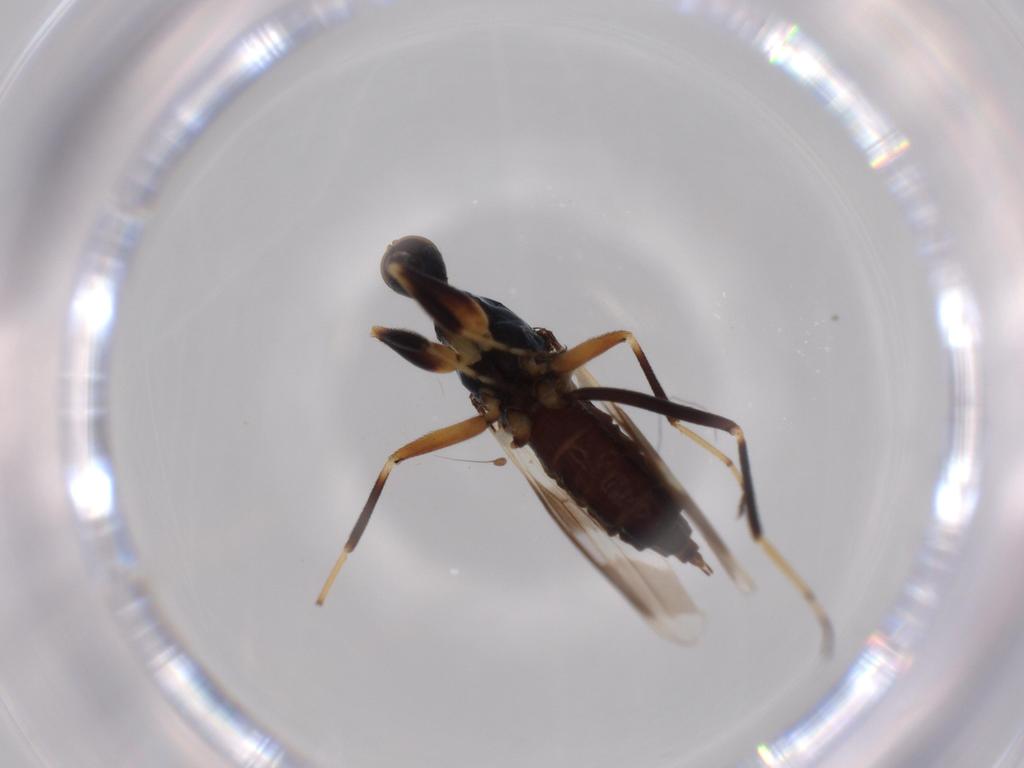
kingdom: Animalia
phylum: Arthropoda
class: Insecta
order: Diptera
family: Hybotidae
